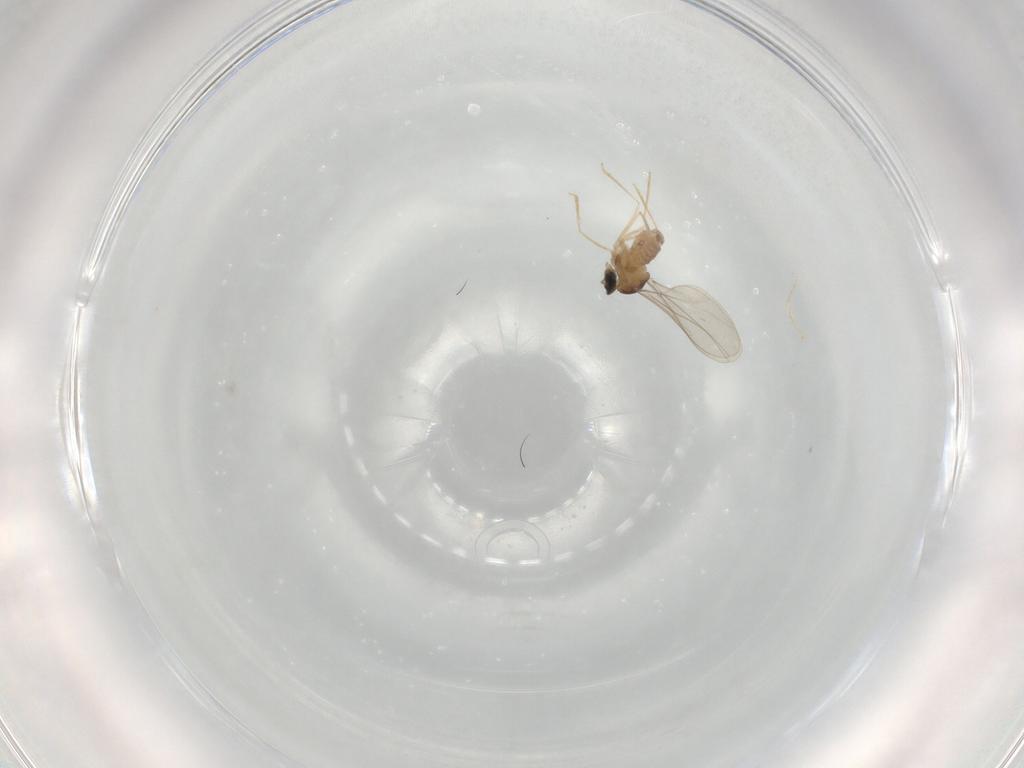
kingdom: Animalia
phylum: Arthropoda
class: Insecta
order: Diptera
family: Cecidomyiidae
